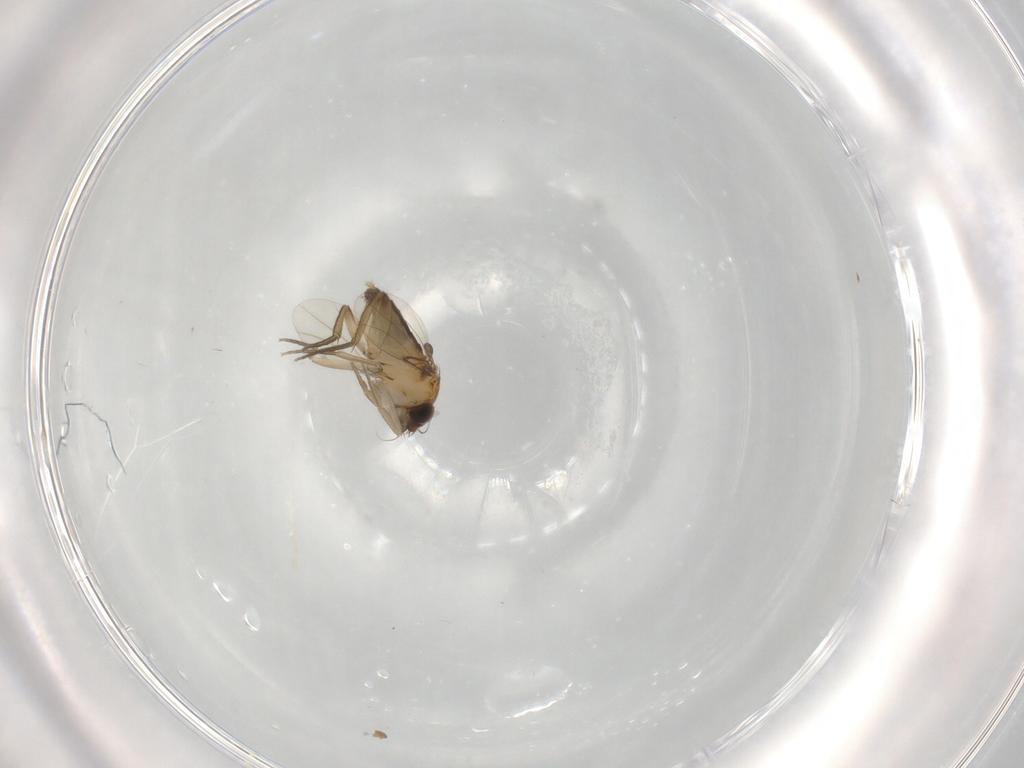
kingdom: Animalia
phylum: Arthropoda
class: Insecta
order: Diptera
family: Phoridae
